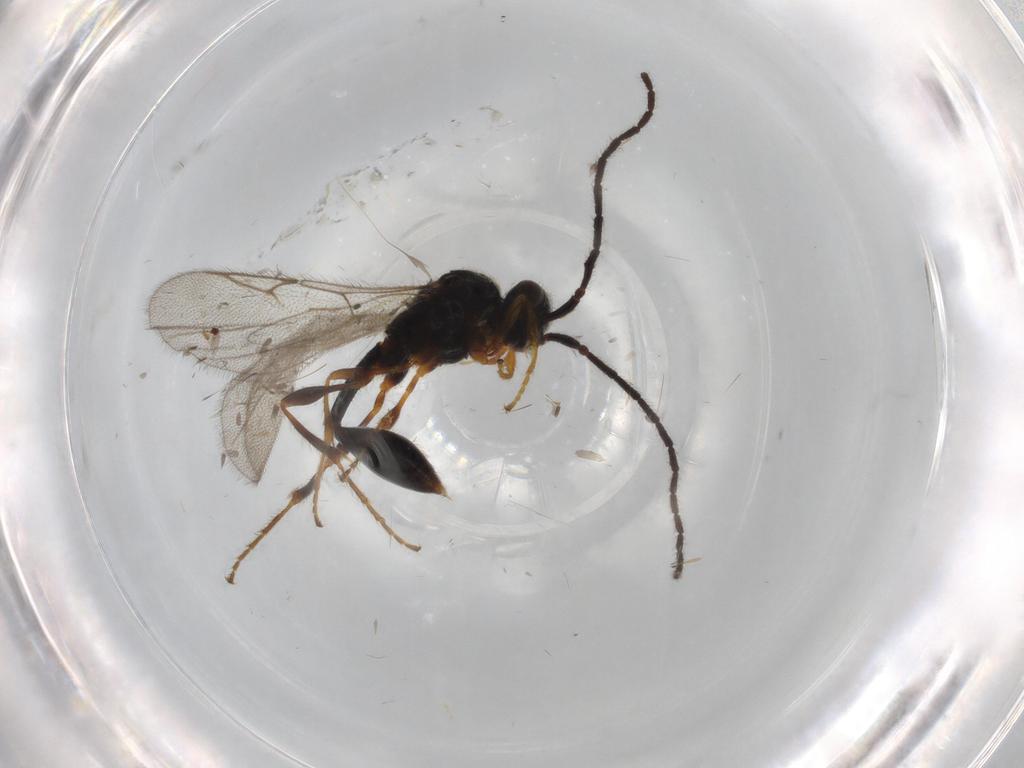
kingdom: Animalia
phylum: Arthropoda
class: Insecta
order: Hymenoptera
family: Diapriidae
